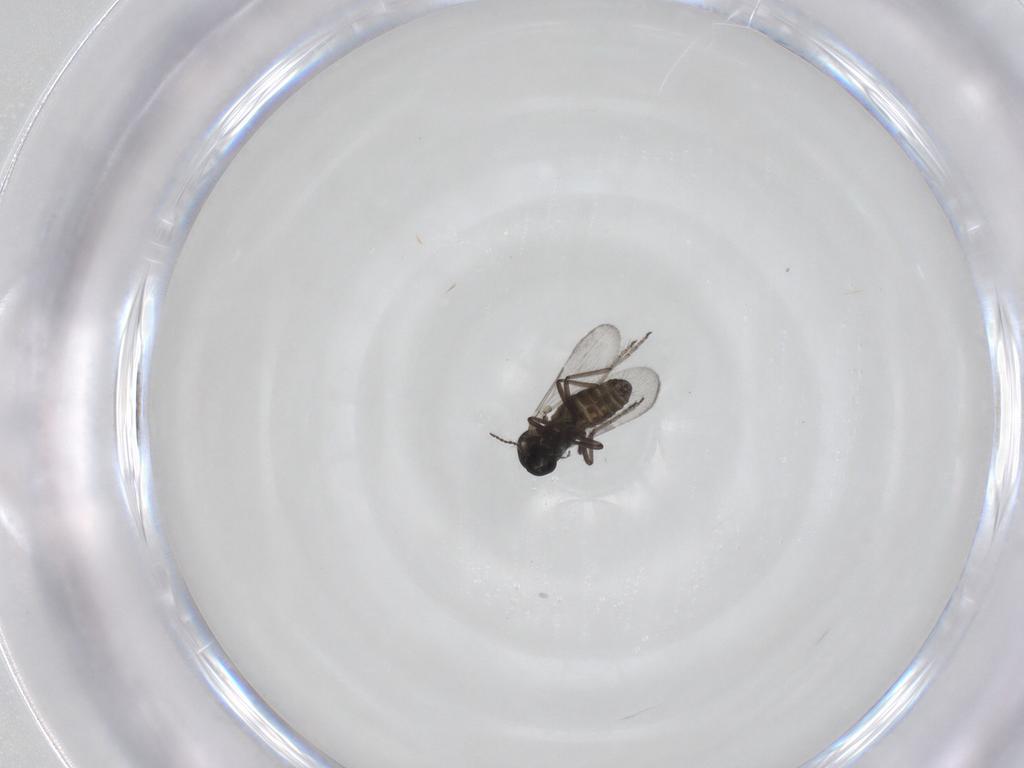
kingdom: Animalia
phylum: Arthropoda
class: Insecta
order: Diptera
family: Ceratopogonidae
